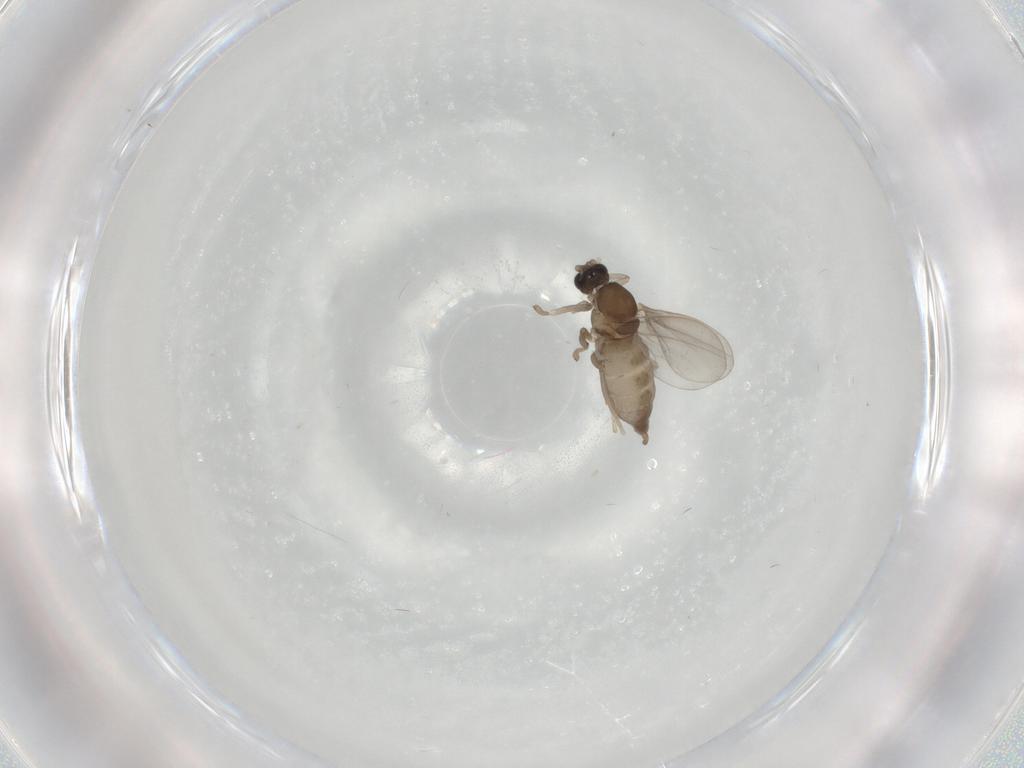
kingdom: Animalia
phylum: Arthropoda
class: Insecta
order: Diptera
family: Cecidomyiidae
